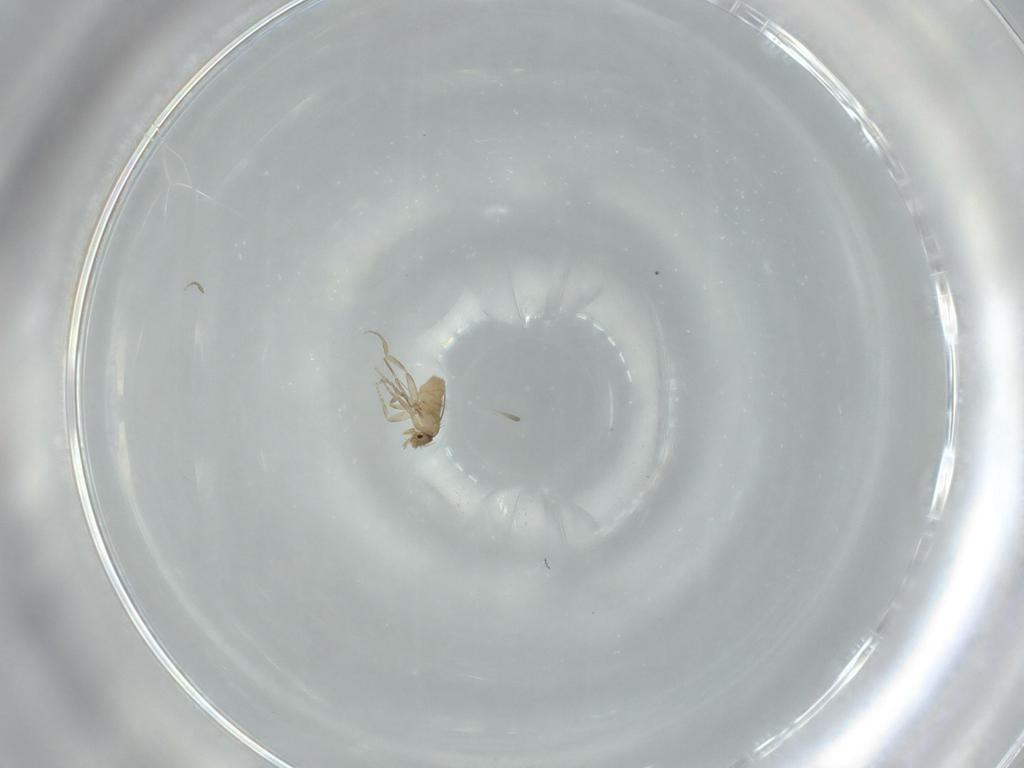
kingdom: Animalia
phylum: Arthropoda
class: Insecta
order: Diptera
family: Phoridae
